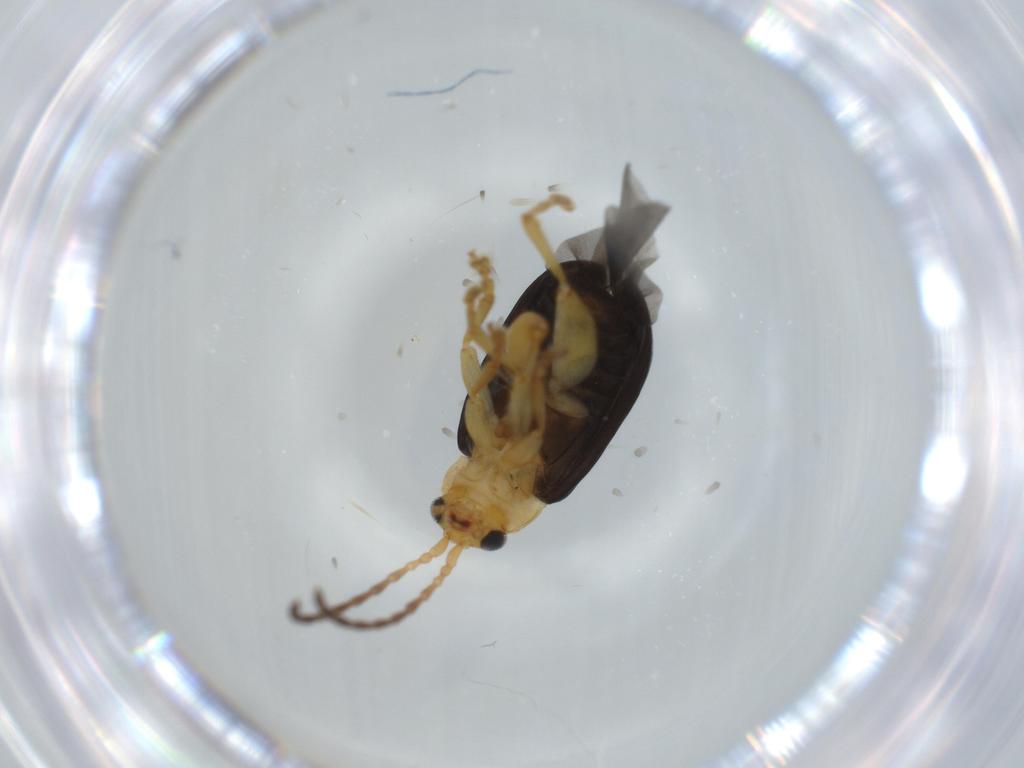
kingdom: Animalia
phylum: Arthropoda
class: Insecta
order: Coleoptera
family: Chrysomelidae
